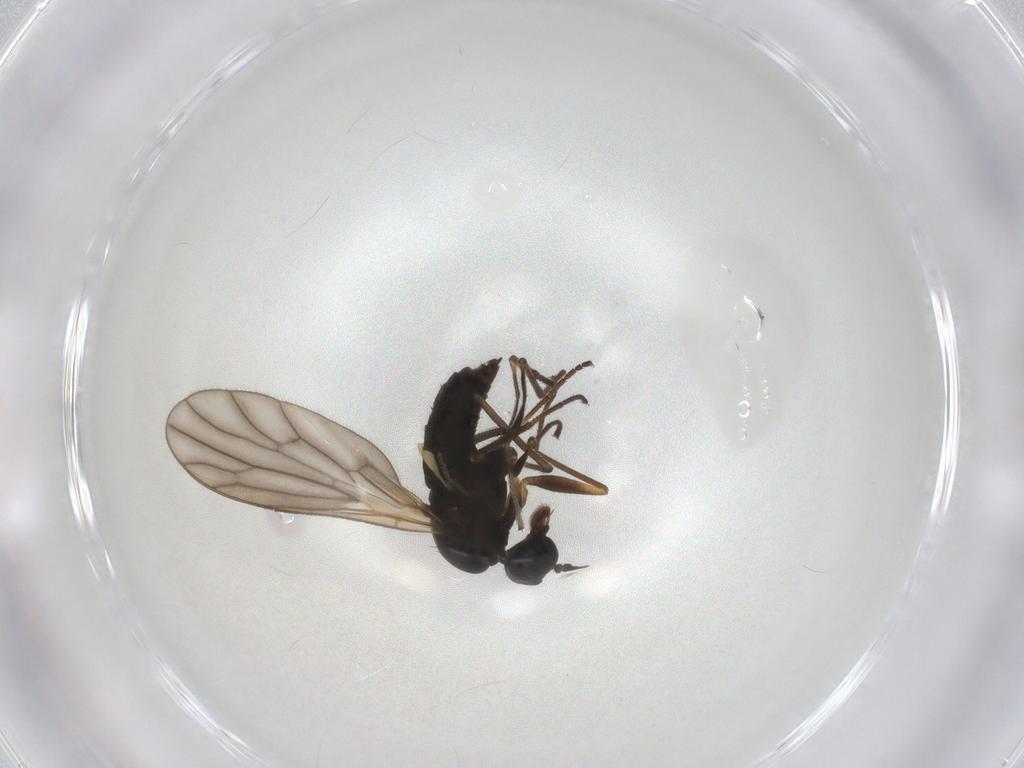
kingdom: Animalia
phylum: Arthropoda
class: Insecta
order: Diptera
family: Empididae
